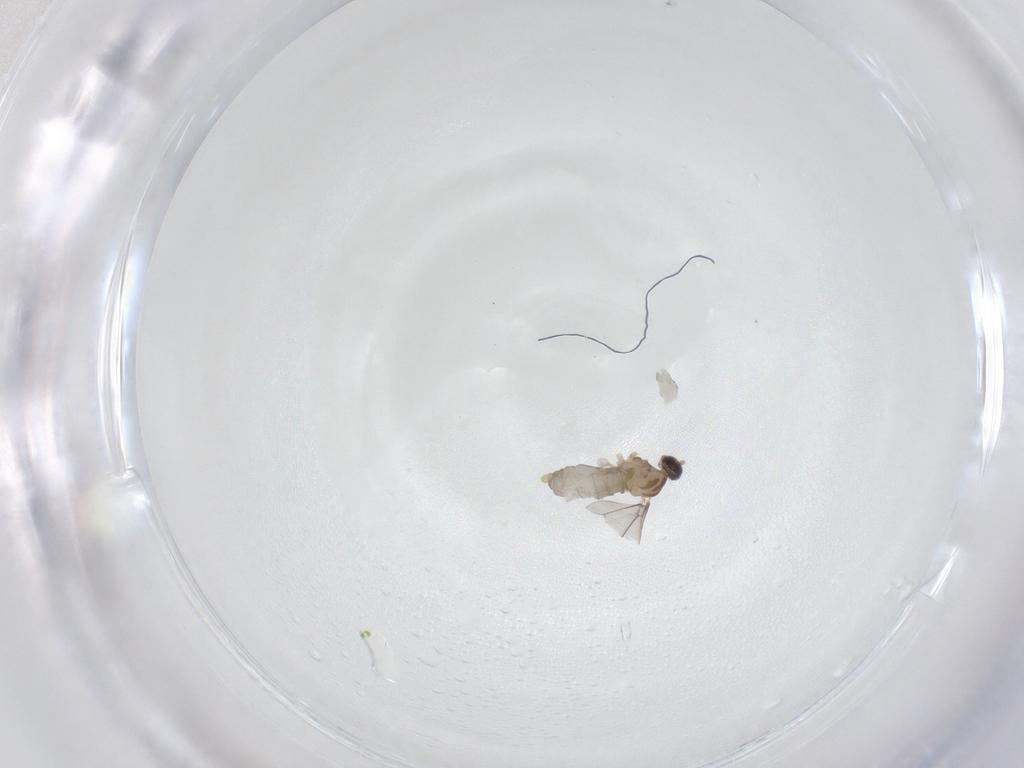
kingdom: Animalia
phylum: Arthropoda
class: Insecta
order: Diptera
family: Cecidomyiidae
